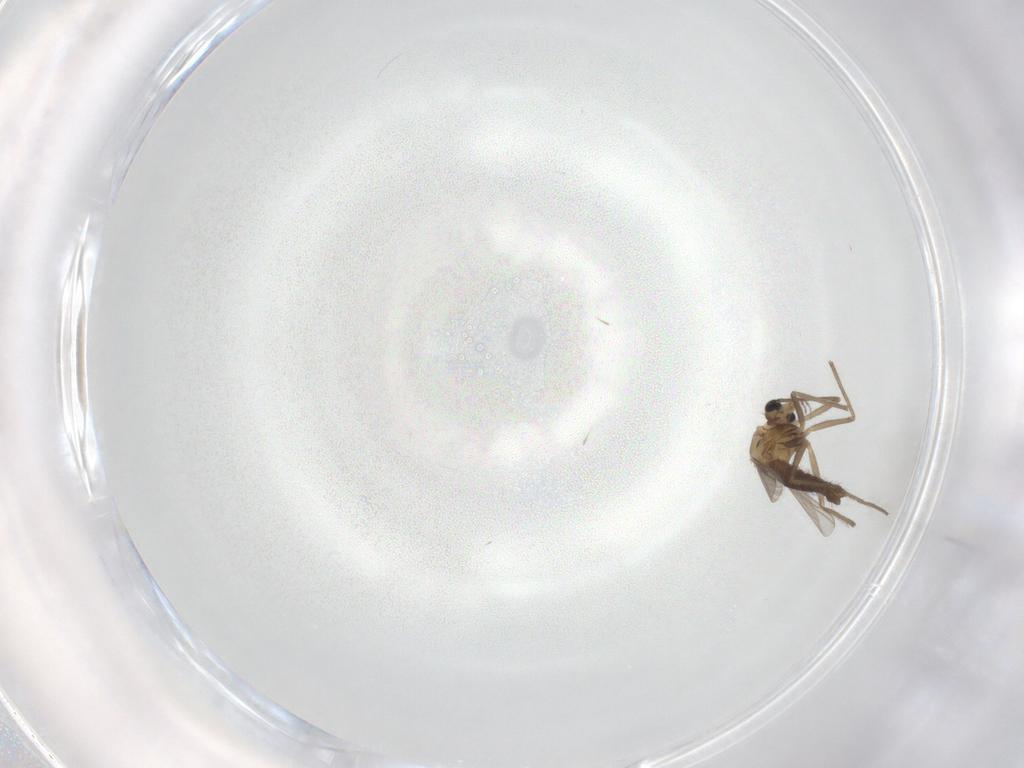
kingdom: Animalia
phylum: Arthropoda
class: Insecta
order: Diptera
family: Chironomidae
